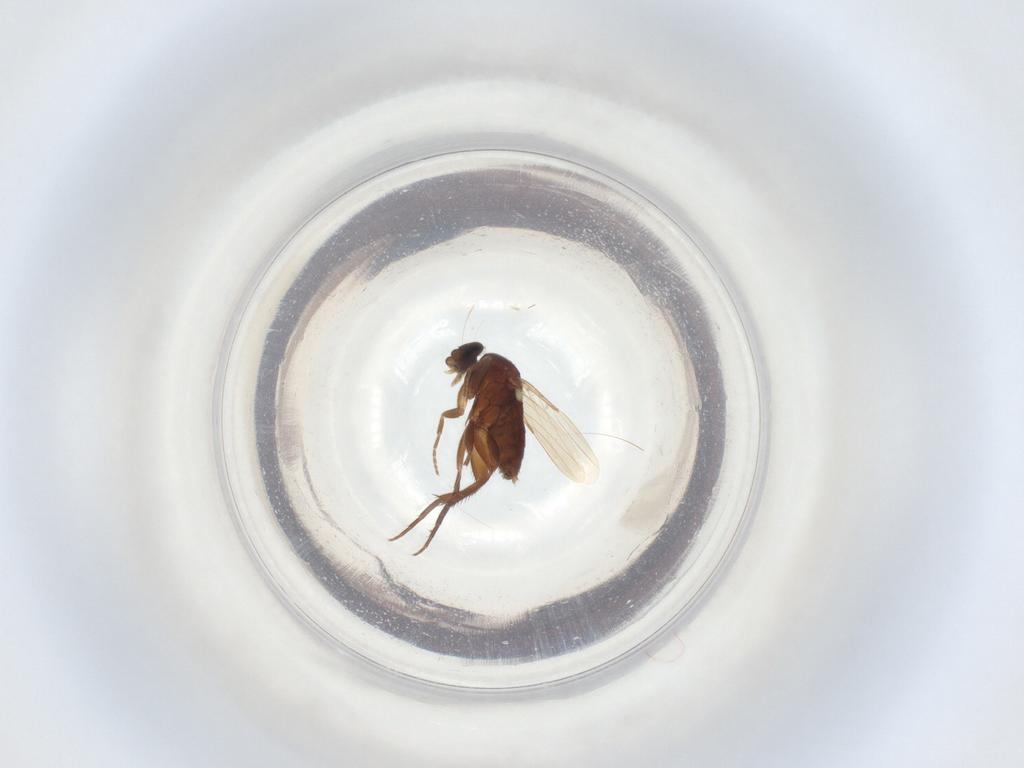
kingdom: Animalia
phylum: Arthropoda
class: Insecta
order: Diptera
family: Phoridae
